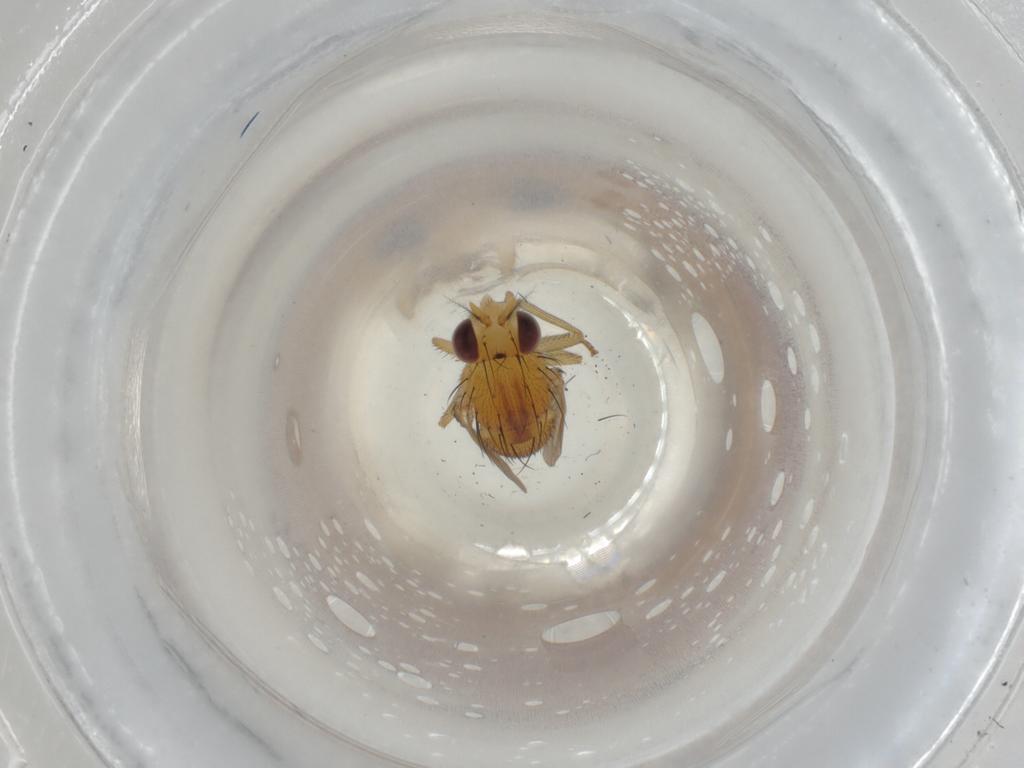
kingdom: Animalia
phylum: Arthropoda
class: Insecta
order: Diptera
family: Lauxaniidae
